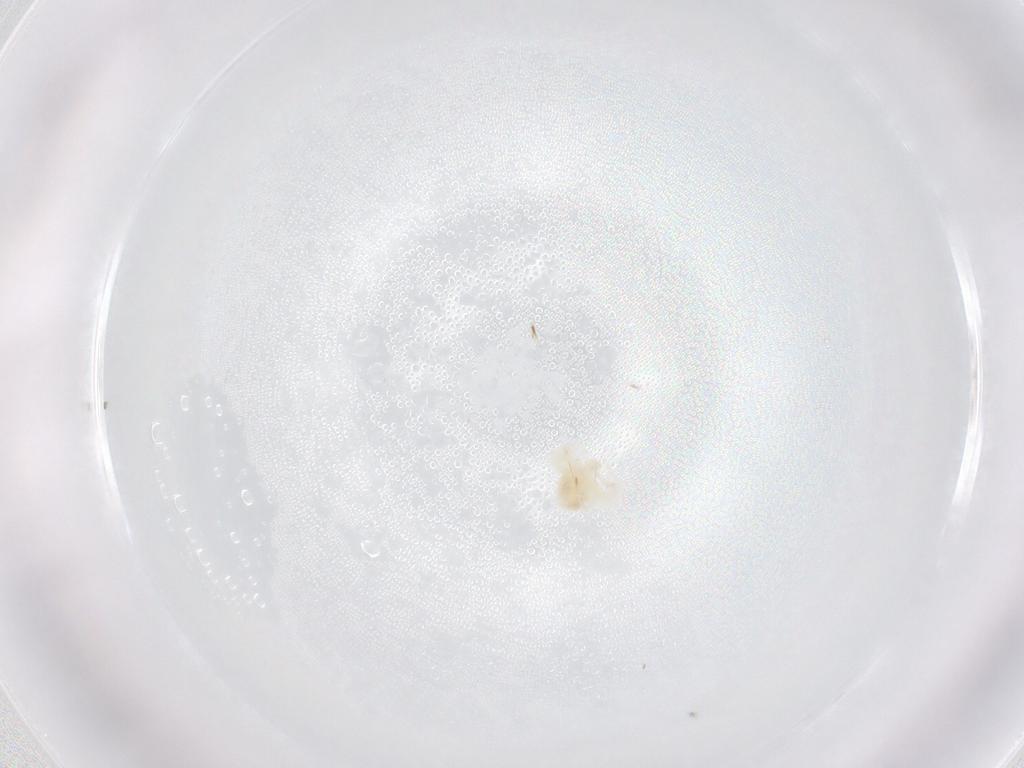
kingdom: Animalia
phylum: Arthropoda
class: Arachnida
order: Trombidiformes
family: Anystidae
